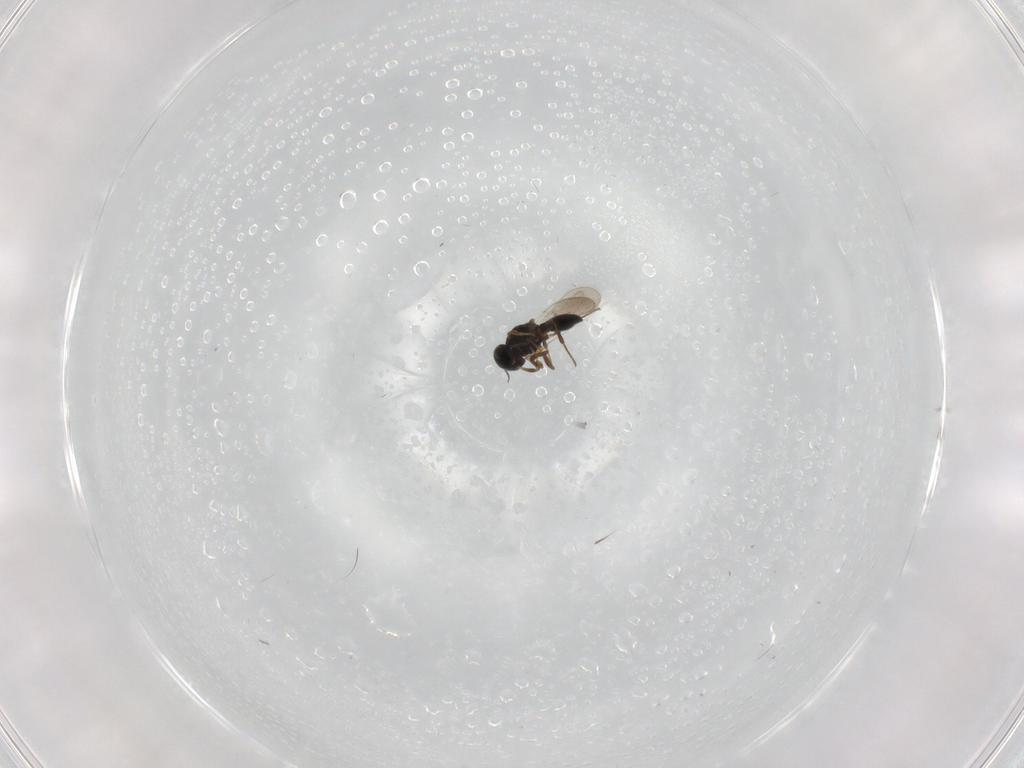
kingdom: Animalia
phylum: Arthropoda
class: Insecta
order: Hymenoptera
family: Platygastridae
